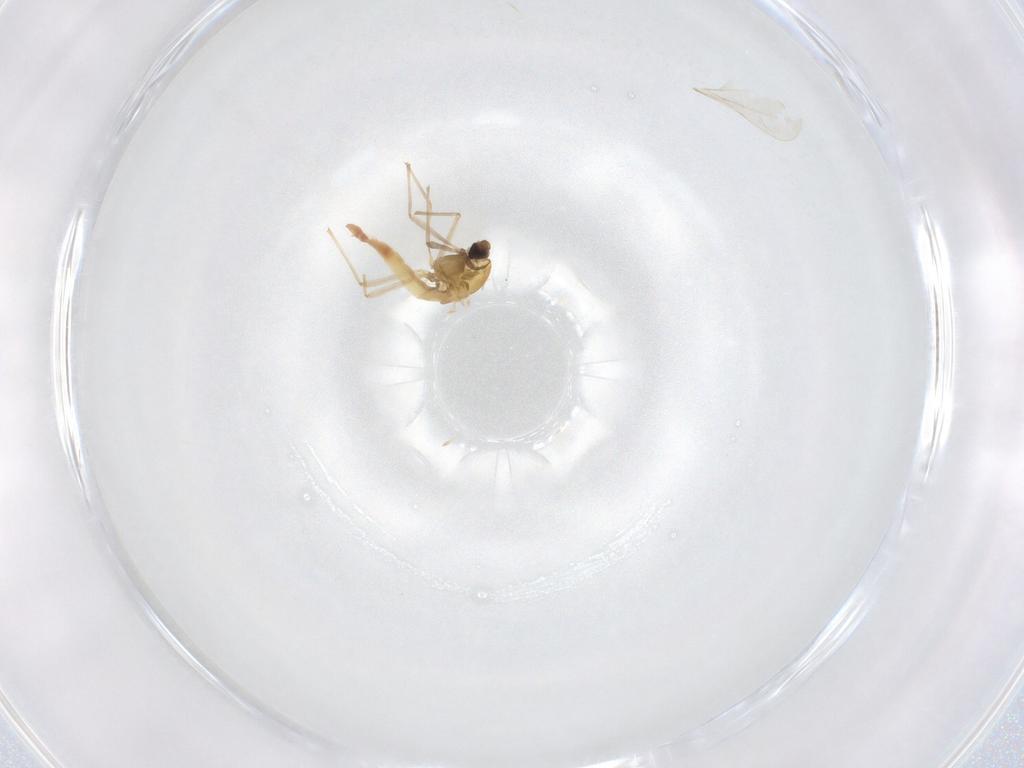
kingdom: Animalia
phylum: Arthropoda
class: Insecta
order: Diptera
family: Chironomidae
